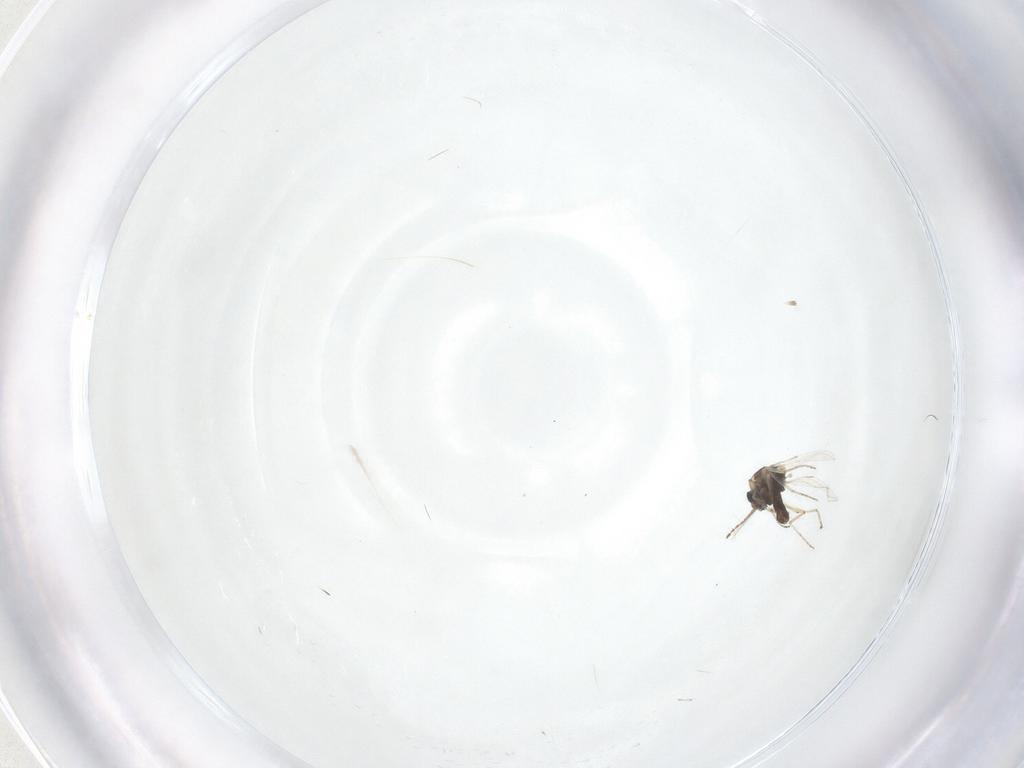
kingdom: Animalia
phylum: Arthropoda
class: Insecta
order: Diptera
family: Ceratopogonidae
